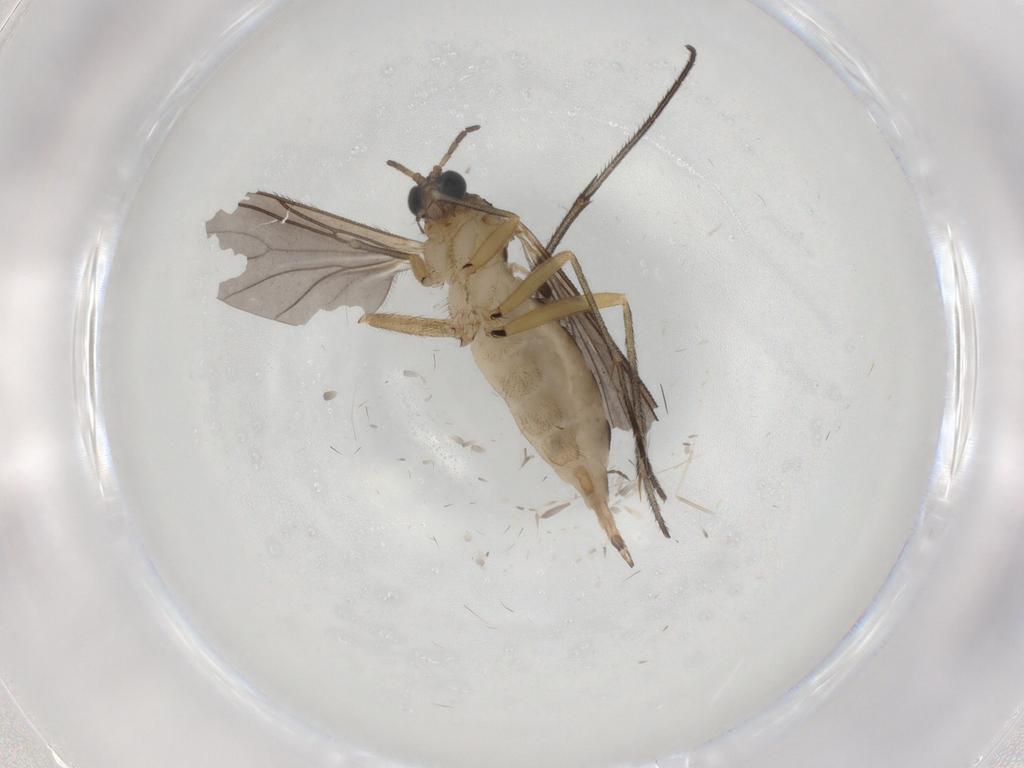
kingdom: Animalia
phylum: Arthropoda
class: Insecta
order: Diptera
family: Sciaridae
